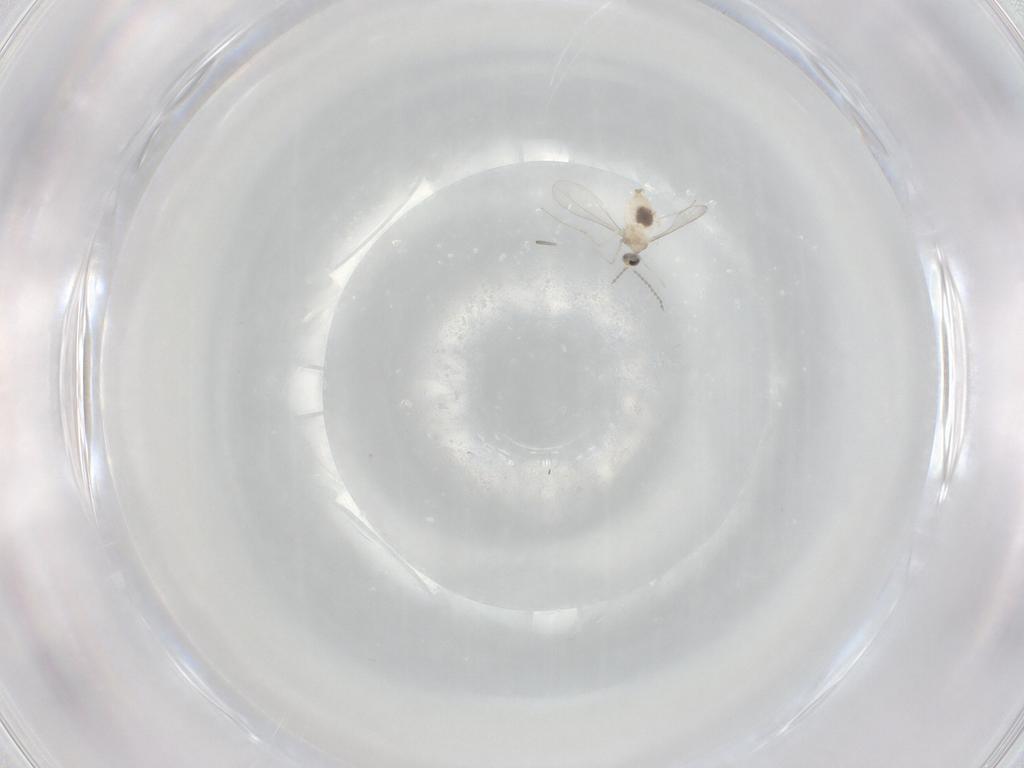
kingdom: Animalia
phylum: Arthropoda
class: Insecta
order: Diptera
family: Cecidomyiidae
